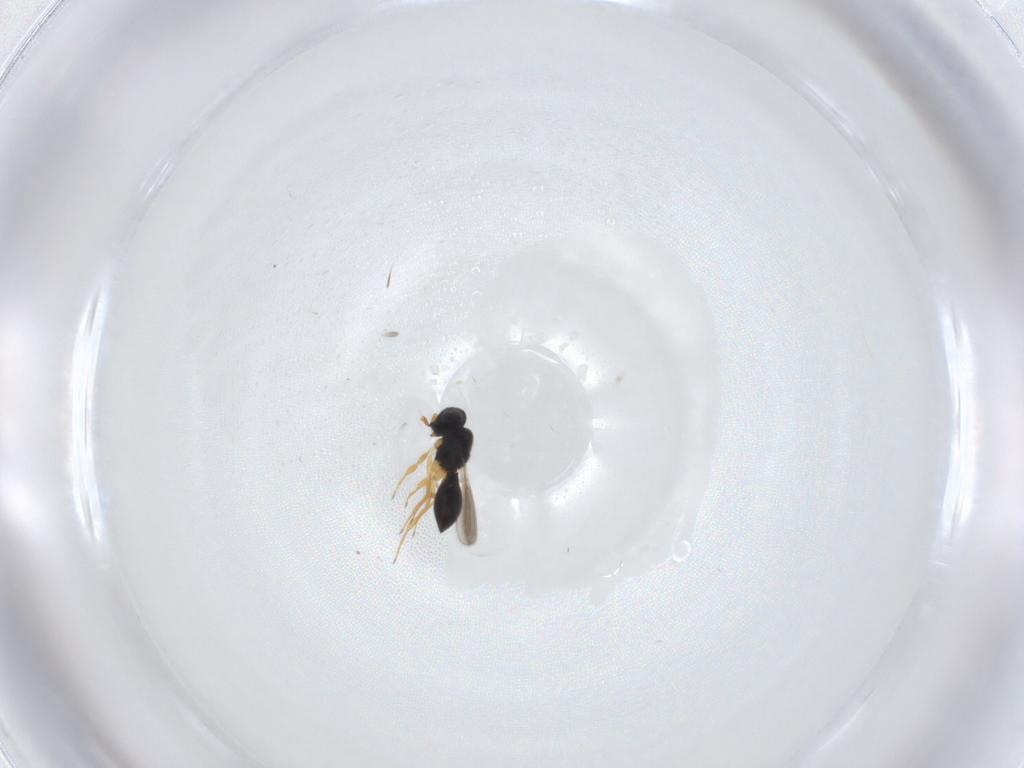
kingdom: Animalia
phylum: Arthropoda
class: Insecta
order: Hymenoptera
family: Scelionidae
